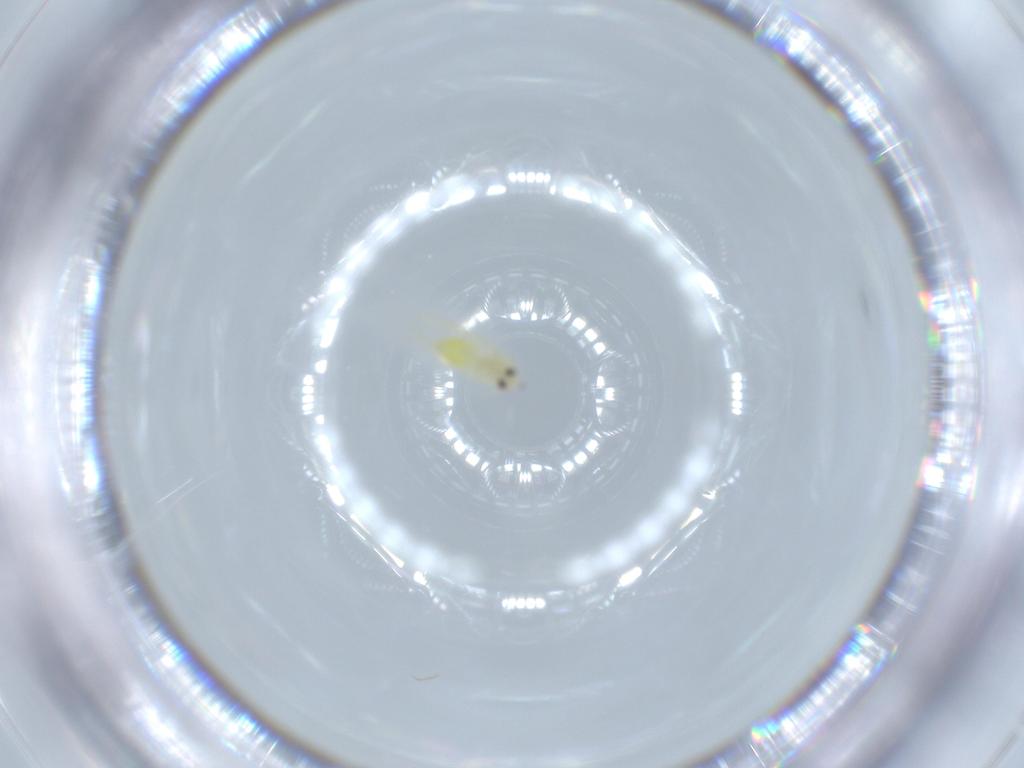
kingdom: Animalia
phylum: Arthropoda
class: Insecta
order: Hemiptera
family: Aleyrodidae
